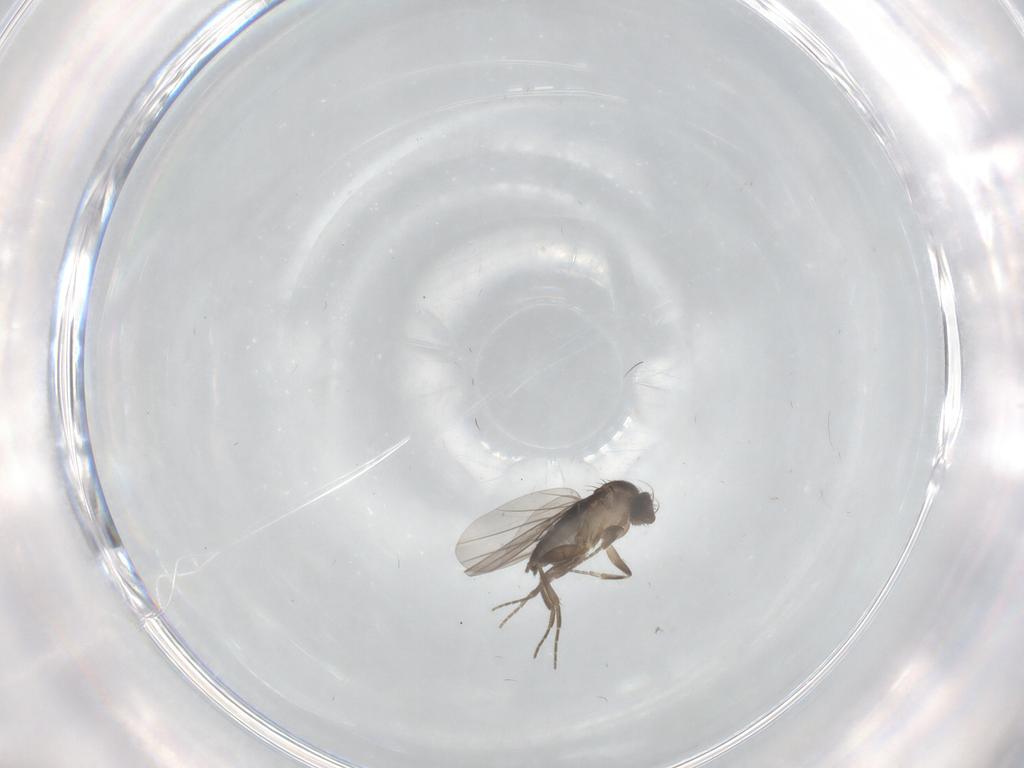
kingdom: Animalia
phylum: Arthropoda
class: Insecta
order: Diptera
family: Phoridae
